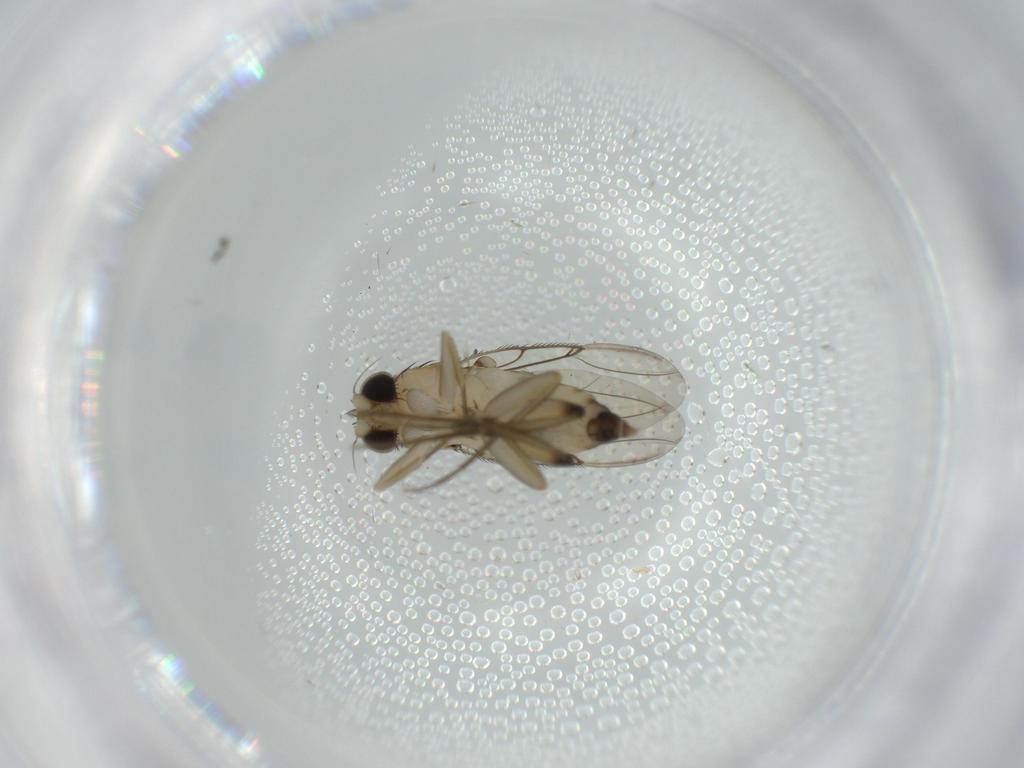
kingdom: Animalia
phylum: Arthropoda
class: Insecta
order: Diptera
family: Phoridae
